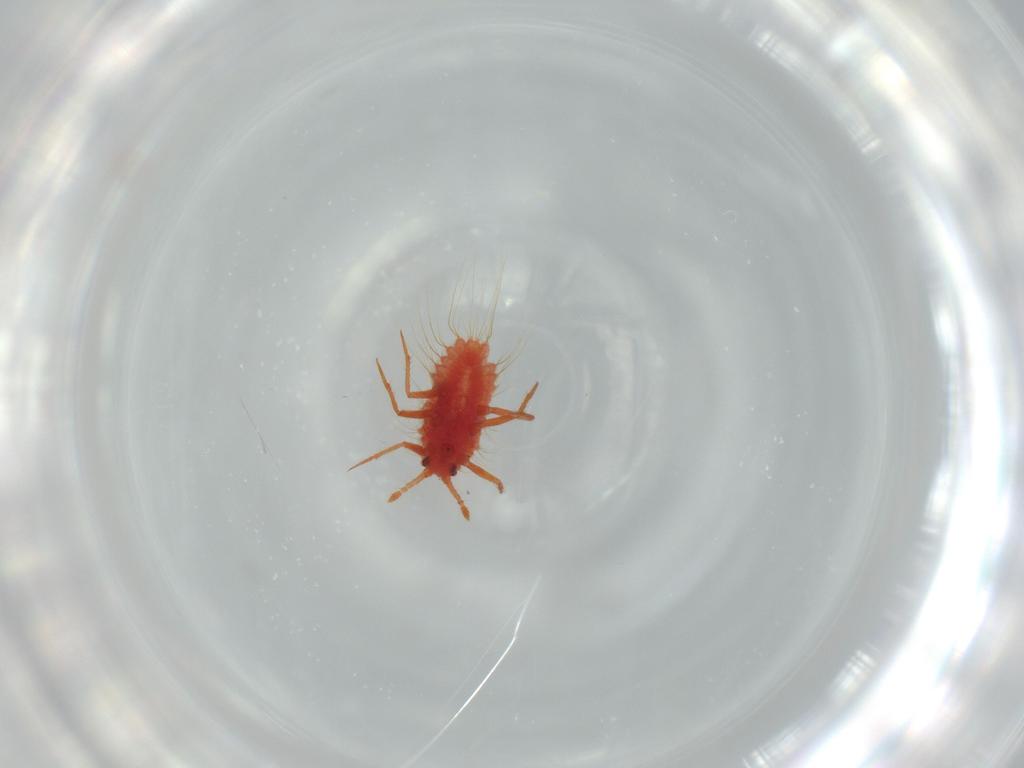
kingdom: Animalia
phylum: Arthropoda
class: Insecta
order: Hemiptera
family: Monophlebidae
